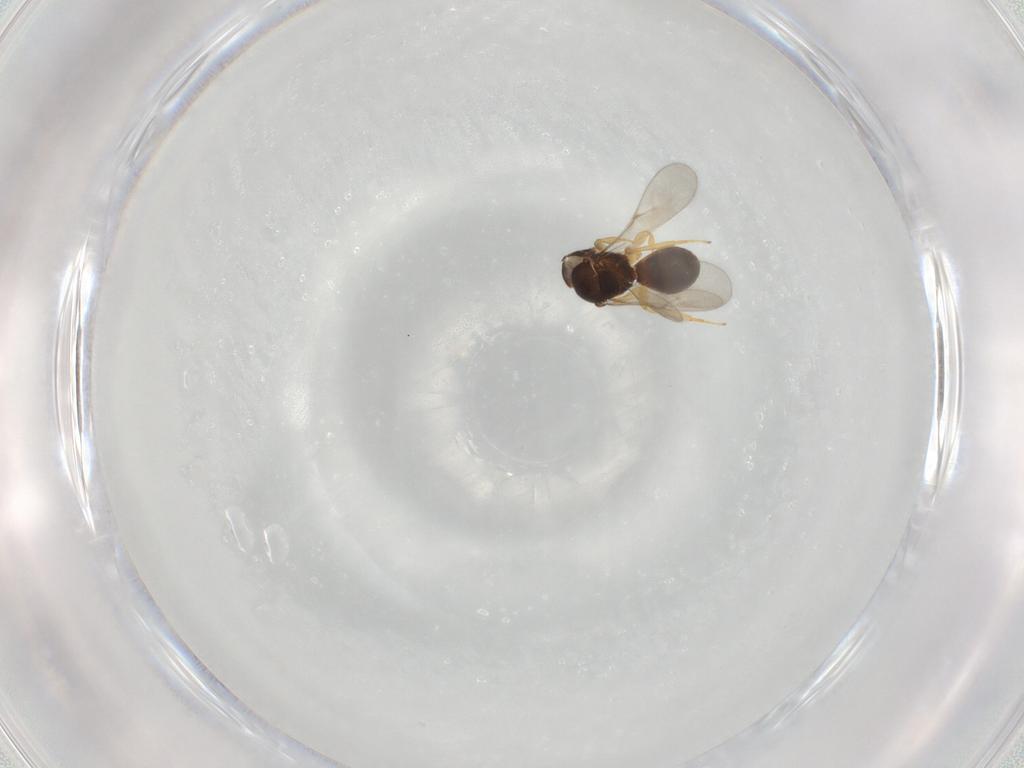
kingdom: Animalia
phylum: Arthropoda
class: Insecta
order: Hymenoptera
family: Scelionidae
